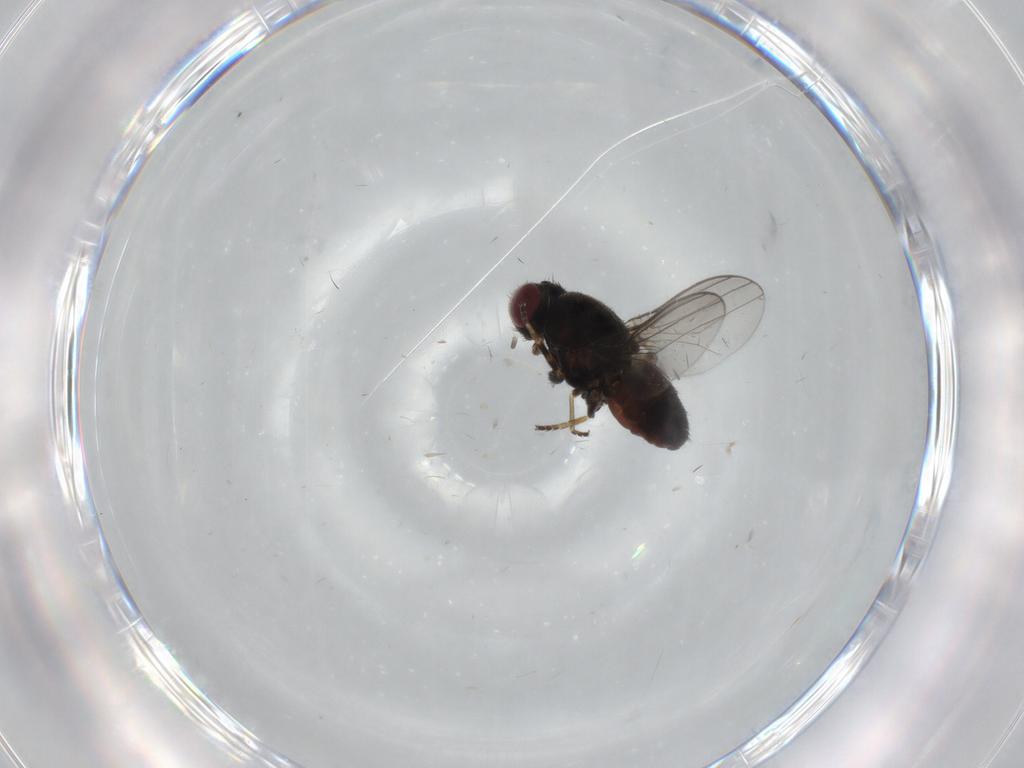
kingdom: Animalia
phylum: Arthropoda
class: Insecta
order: Diptera
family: Chloropidae
